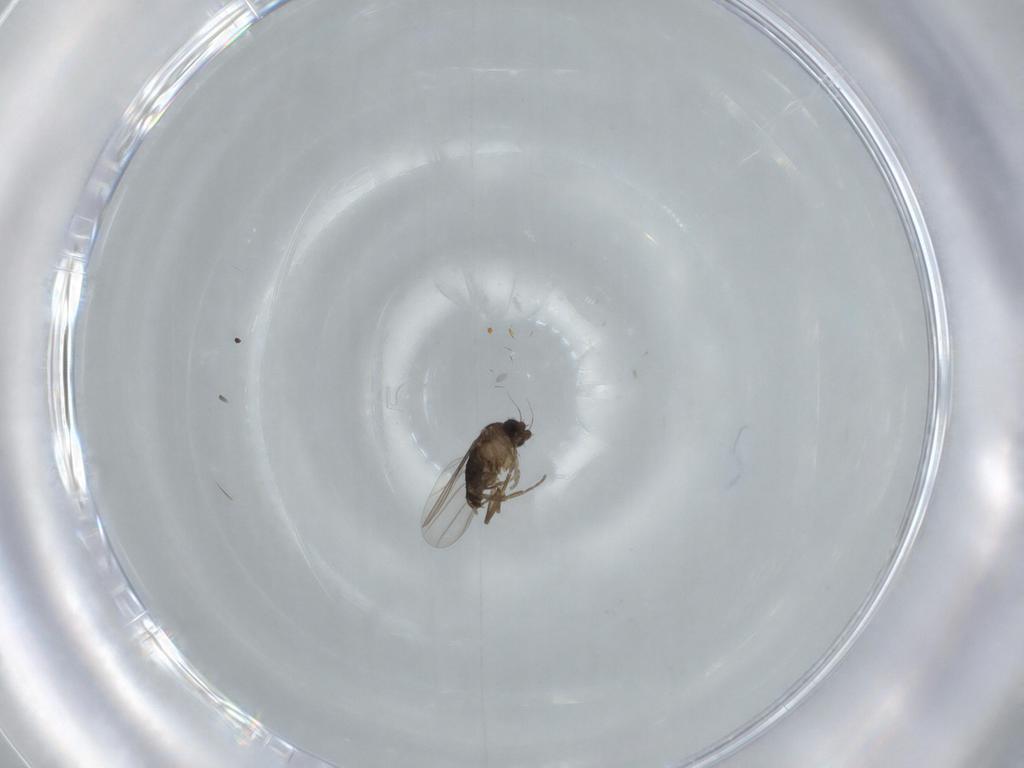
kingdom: Animalia
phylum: Arthropoda
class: Insecta
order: Diptera
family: Phoridae
